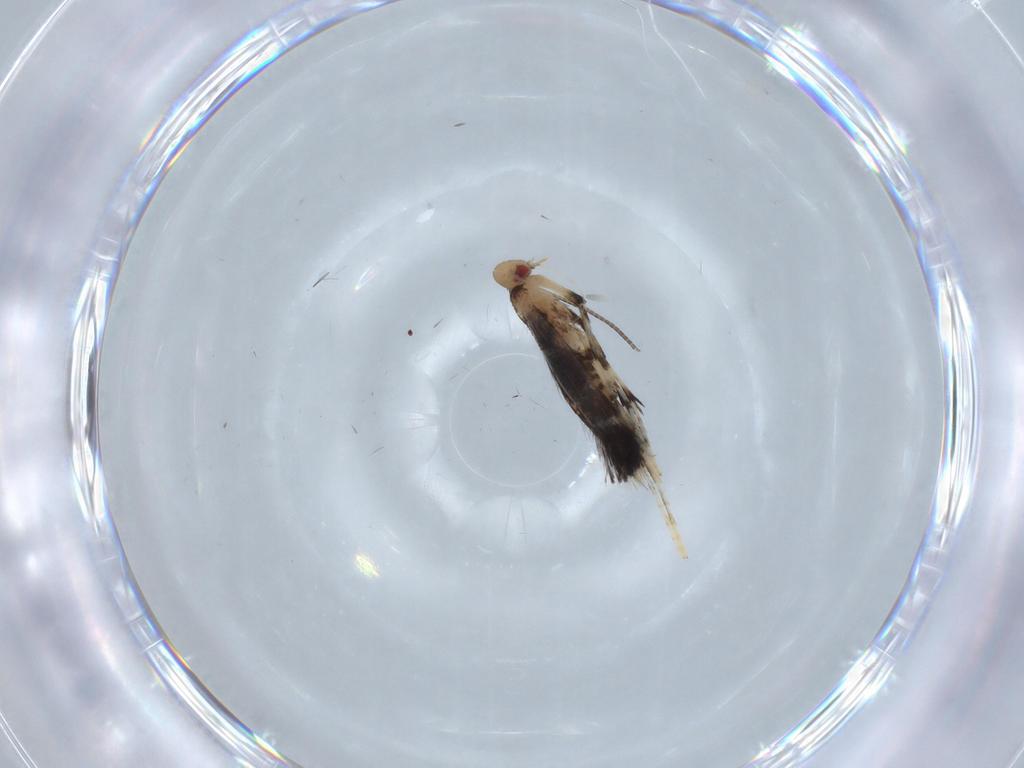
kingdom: Animalia
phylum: Arthropoda
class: Insecta
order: Lepidoptera
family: Gracillariidae
